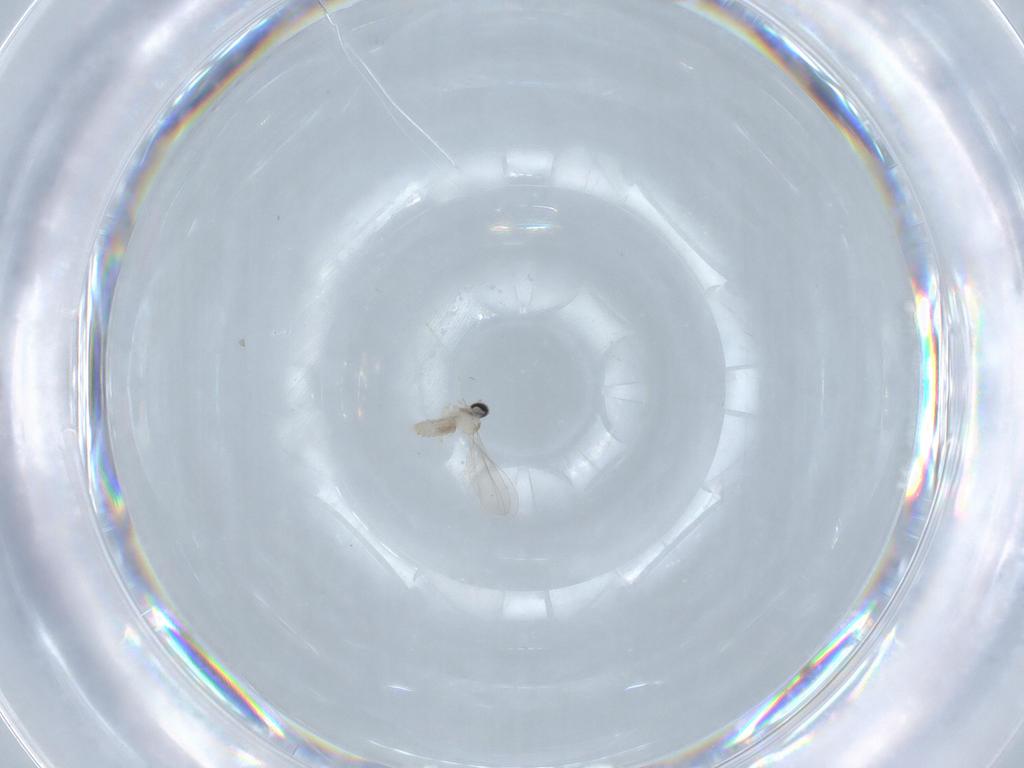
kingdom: Animalia
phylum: Arthropoda
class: Insecta
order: Diptera
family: Cecidomyiidae
